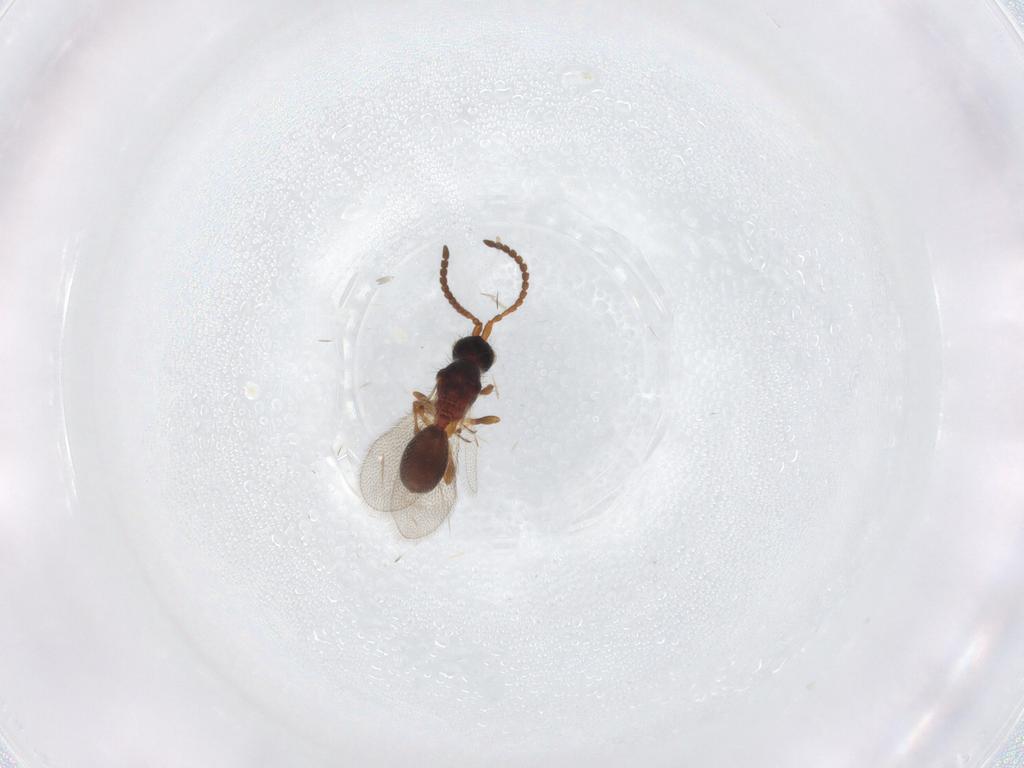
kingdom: Animalia
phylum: Arthropoda
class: Insecta
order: Hymenoptera
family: Diapriidae
